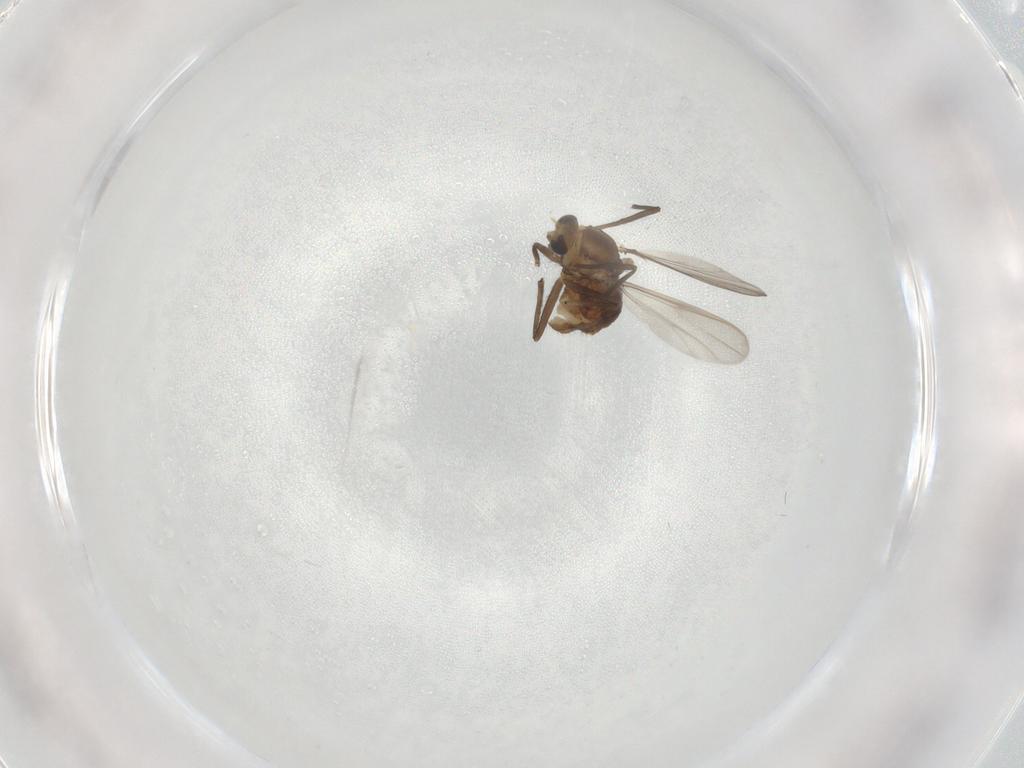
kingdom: Animalia
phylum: Arthropoda
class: Insecta
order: Diptera
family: Chironomidae
